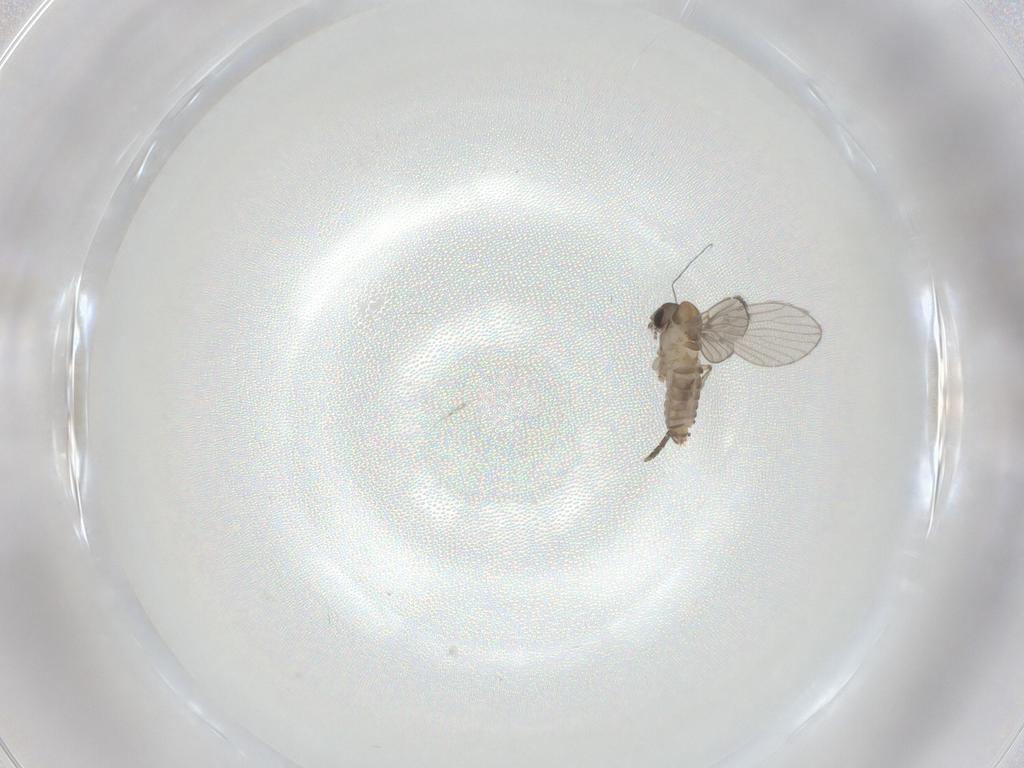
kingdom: Animalia
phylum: Arthropoda
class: Insecta
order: Diptera
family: Psychodidae
